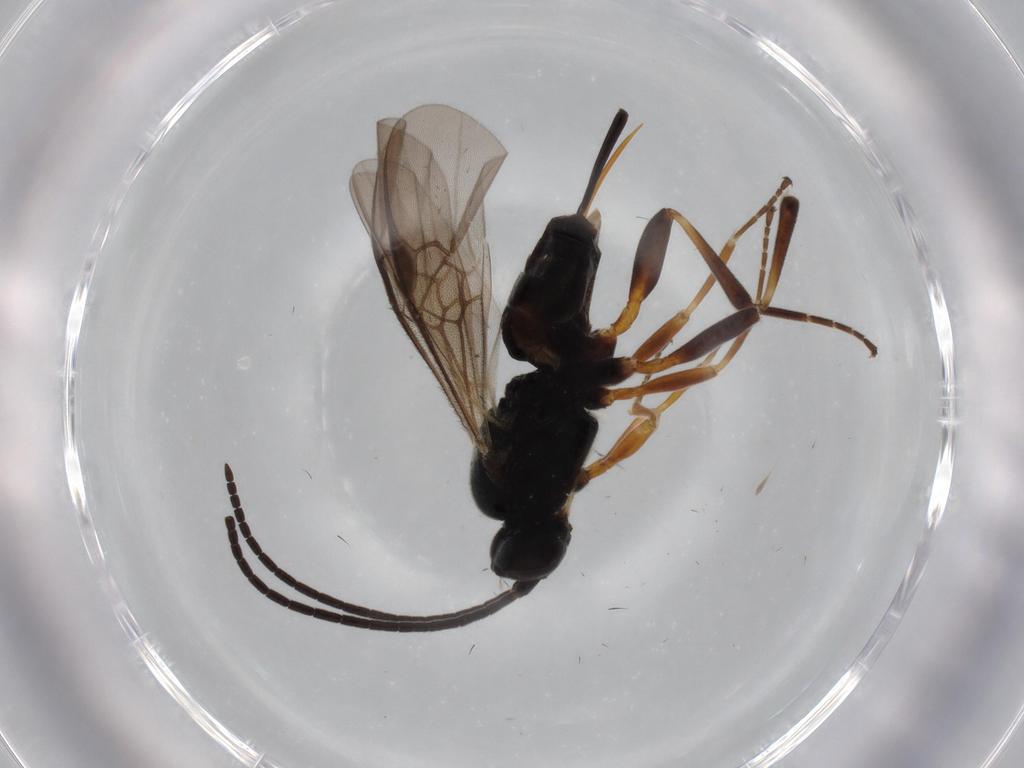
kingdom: Animalia
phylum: Arthropoda
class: Insecta
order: Hymenoptera
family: Braconidae
